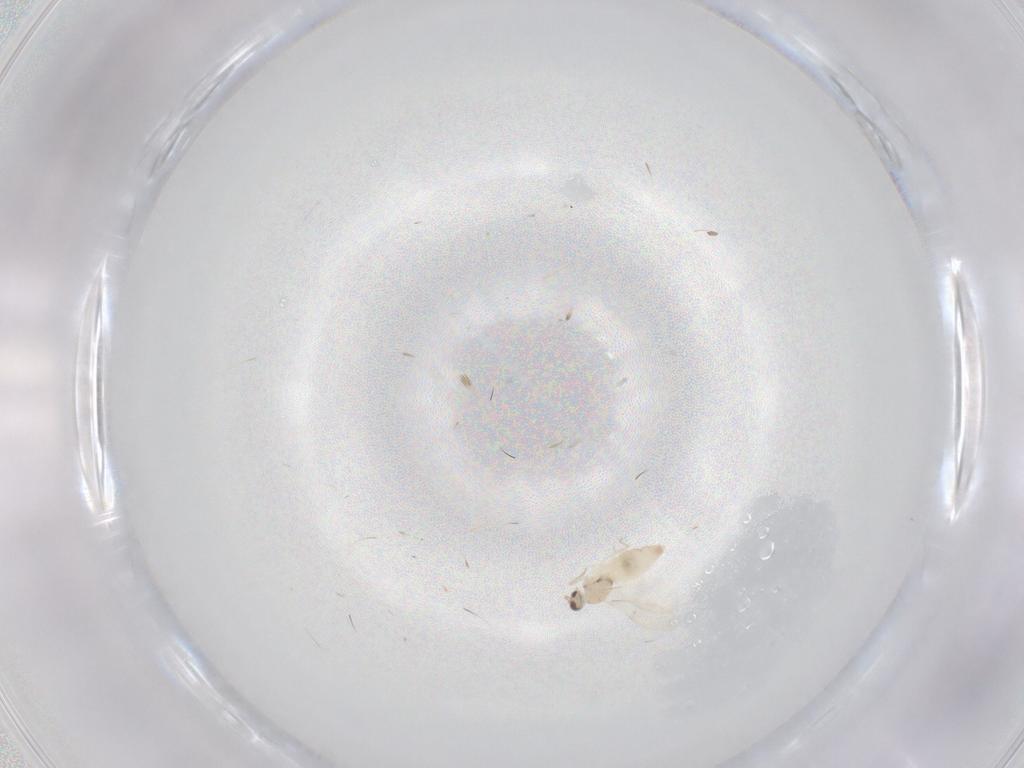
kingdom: Animalia
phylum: Arthropoda
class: Insecta
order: Diptera
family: Cecidomyiidae
